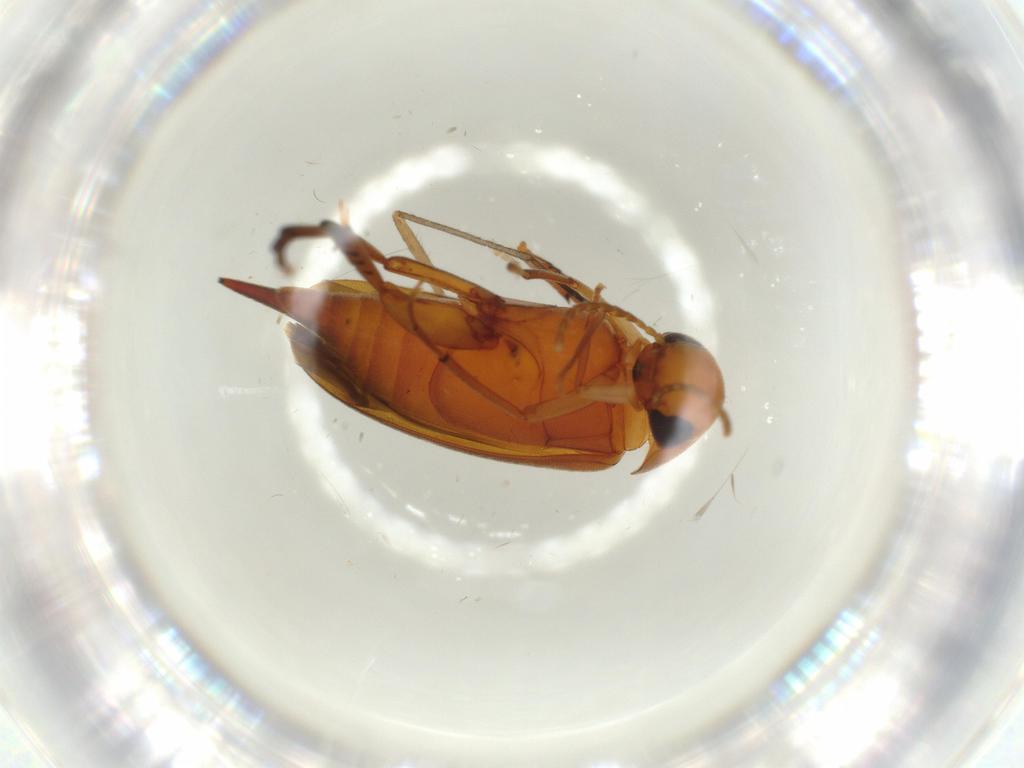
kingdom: Animalia
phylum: Arthropoda
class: Insecta
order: Coleoptera
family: Mordellidae
